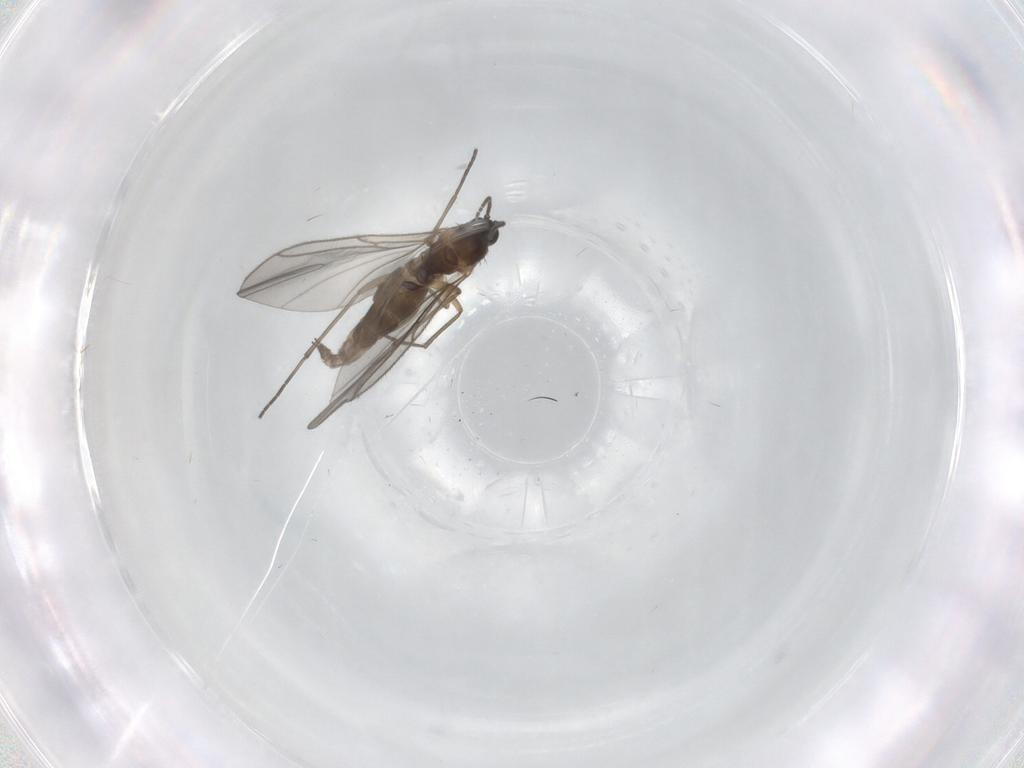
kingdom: Animalia
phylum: Arthropoda
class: Insecta
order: Diptera
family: Sciaridae
